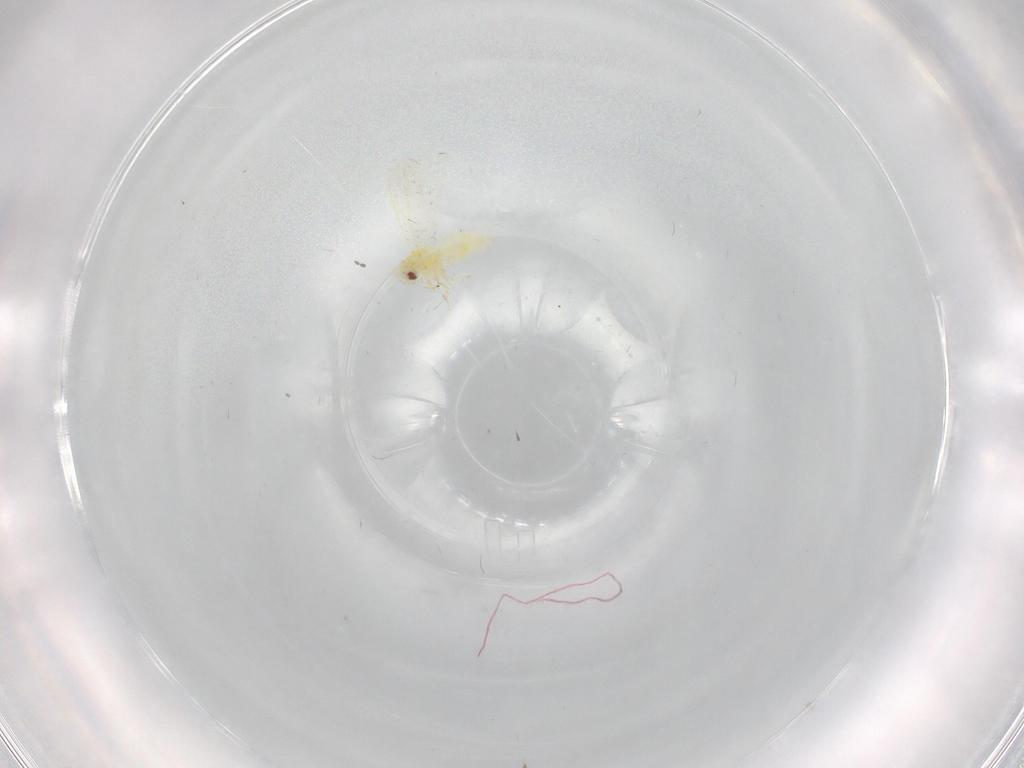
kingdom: Animalia
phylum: Arthropoda
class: Insecta
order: Hemiptera
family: Aleyrodidae
